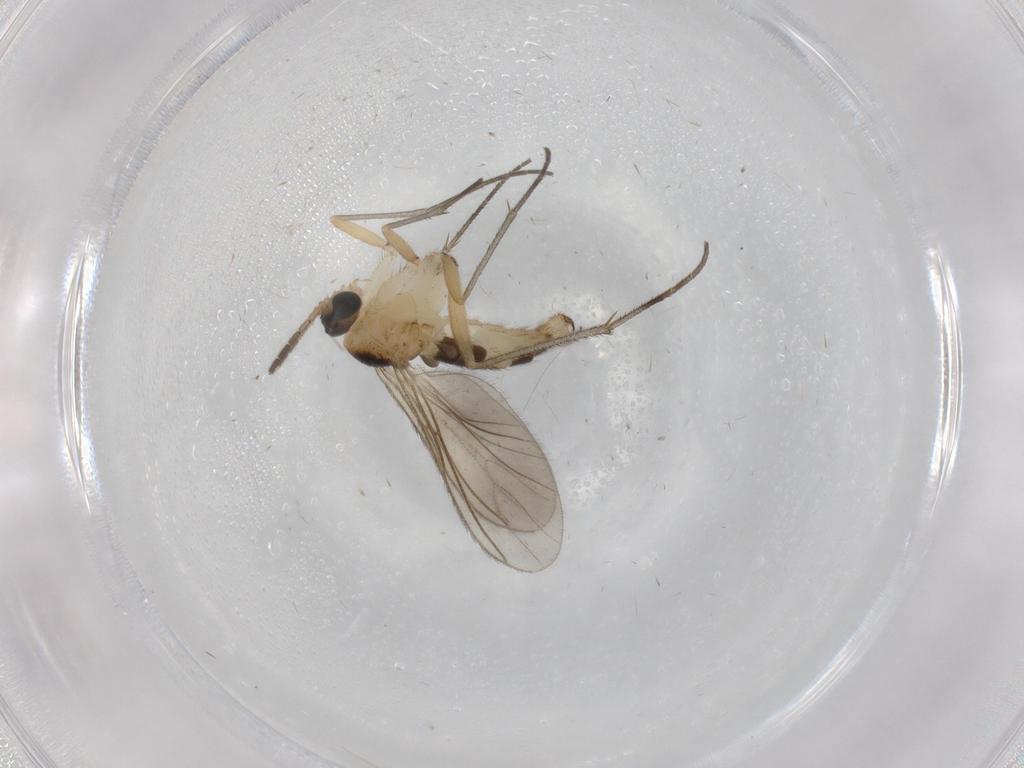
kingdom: Animalia
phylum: Arthropoda
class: Insecta
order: Diptera
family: Sciaridae
